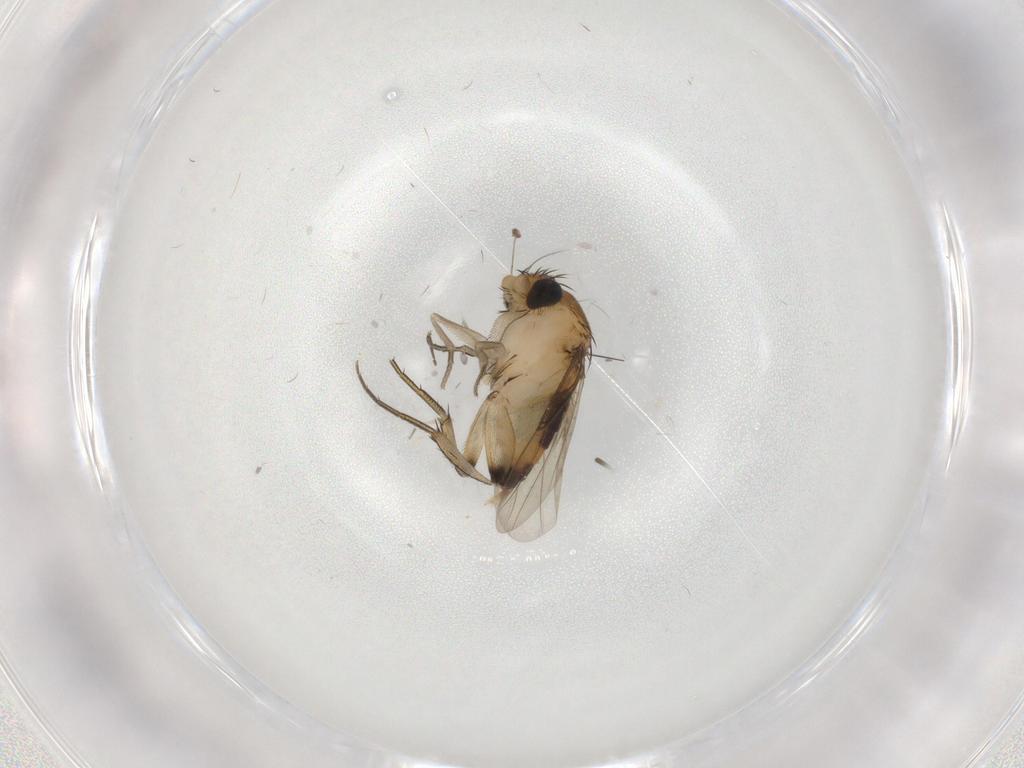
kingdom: Animalia
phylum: Arthropoda
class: Insecta
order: Diptera
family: Phoridae
